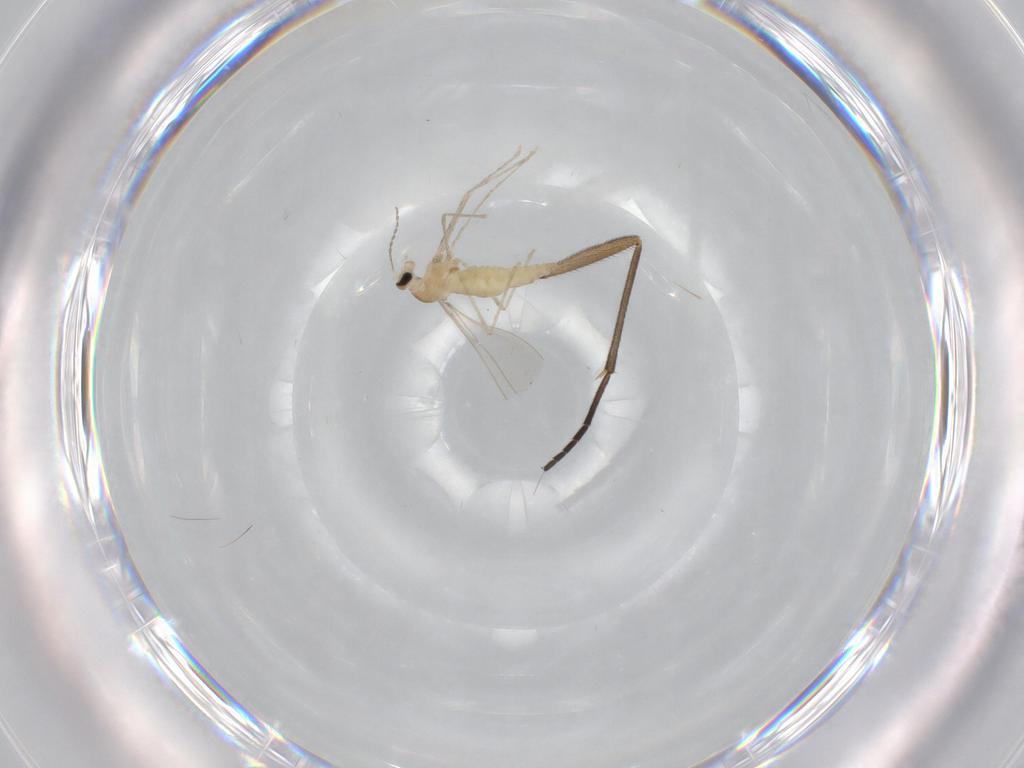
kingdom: Animalia
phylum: Arthropoda
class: Insecta
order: Diptera
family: Cecidomyiidae
